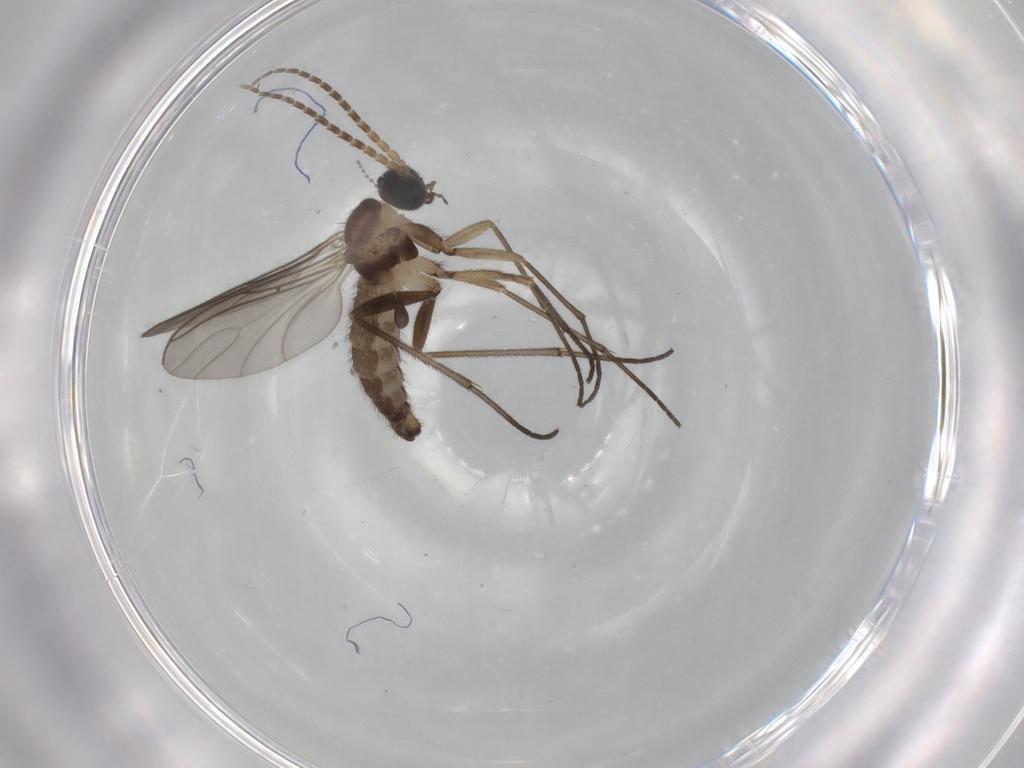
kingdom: Animalia
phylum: Arthropoda
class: Insecta
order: Diptera
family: Sciaridae
